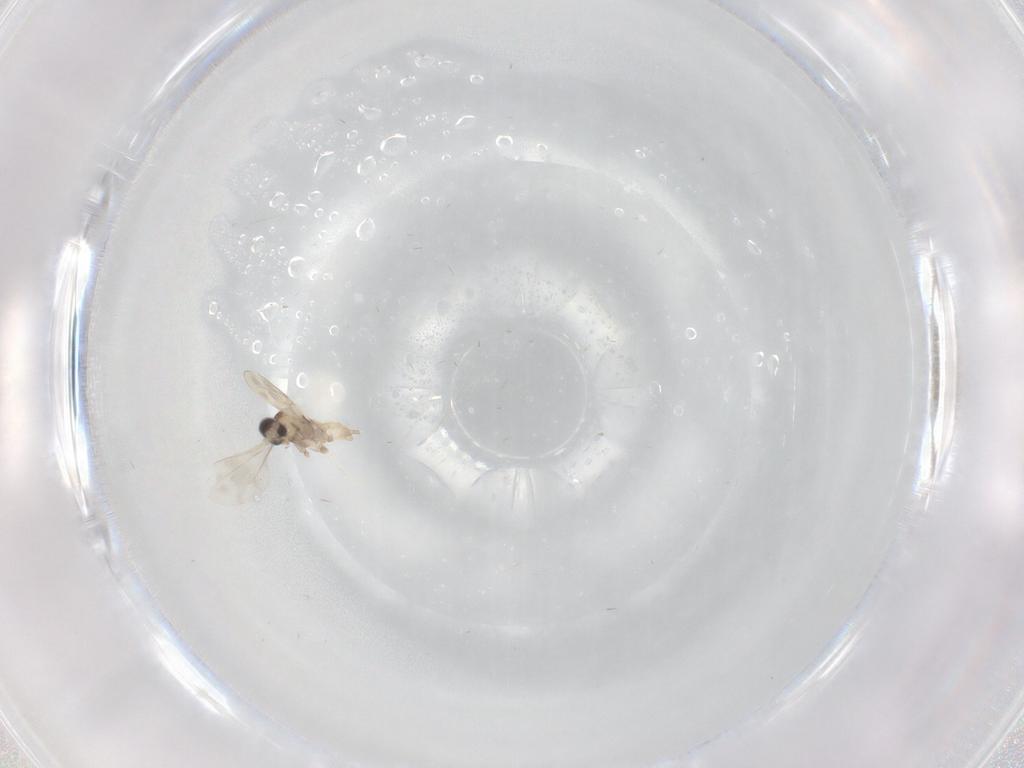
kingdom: Animalia
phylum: Arthropoda
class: Insecta
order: Diptera
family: Cecidomyiidae
